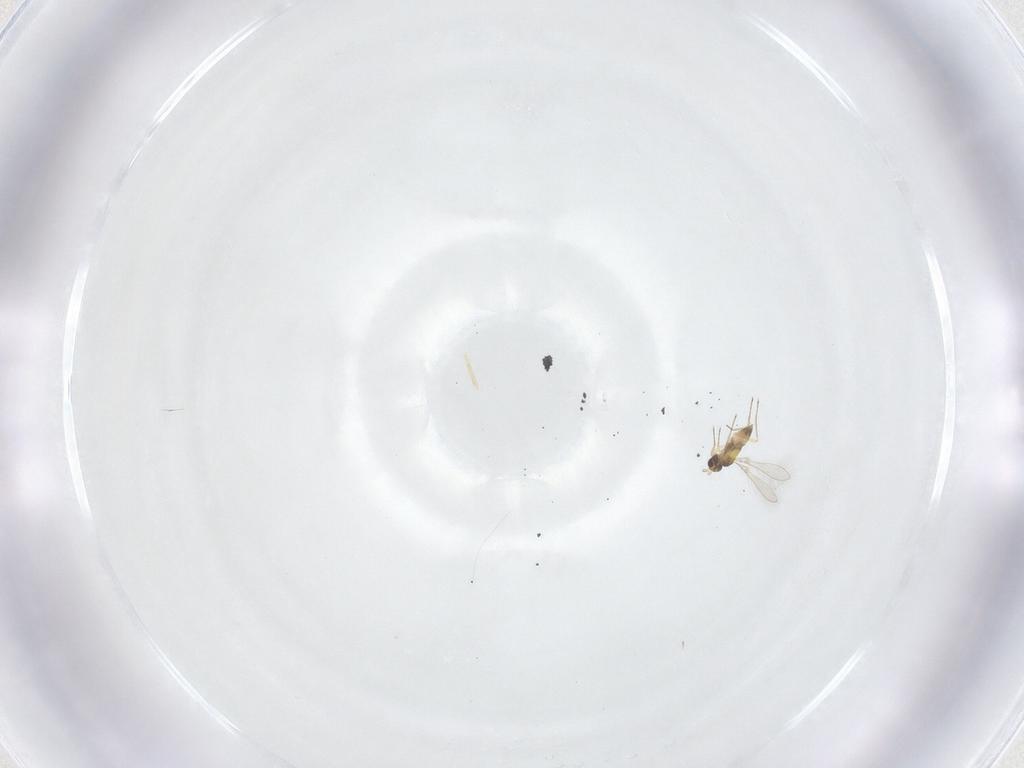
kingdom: Animalia
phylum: Arthropoda
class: Insecta
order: Hymenoptera
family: Mymaridae
